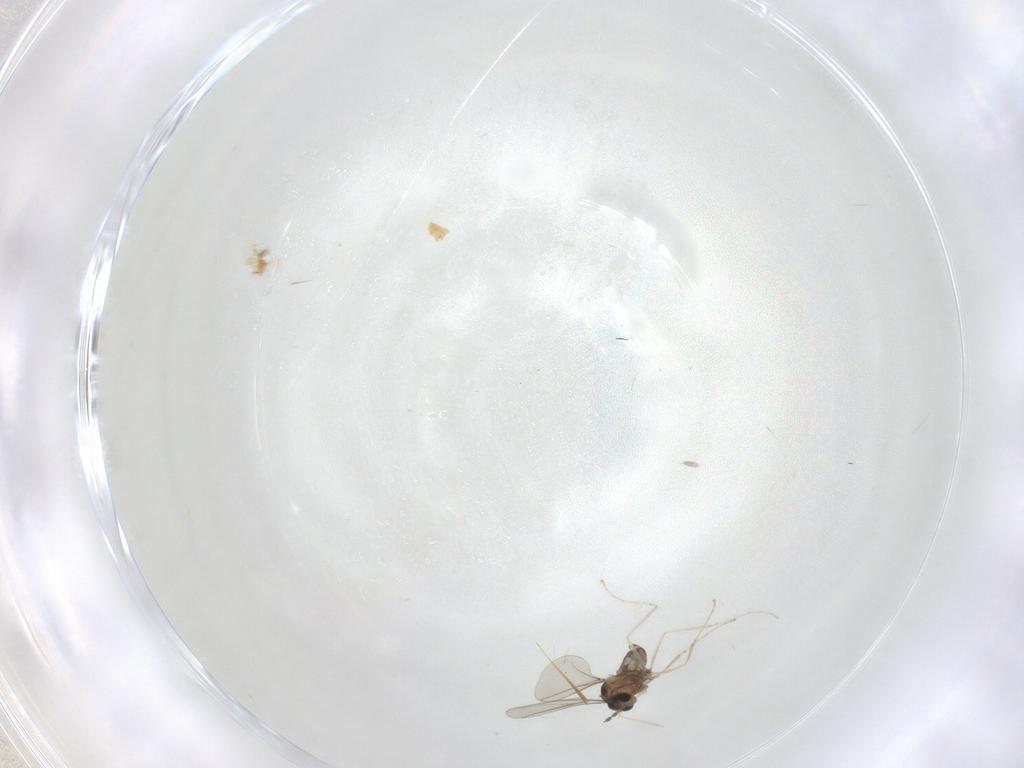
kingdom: Animalia
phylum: Arthropoda
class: Insecta
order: Diptera
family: Cecidomyiidae
